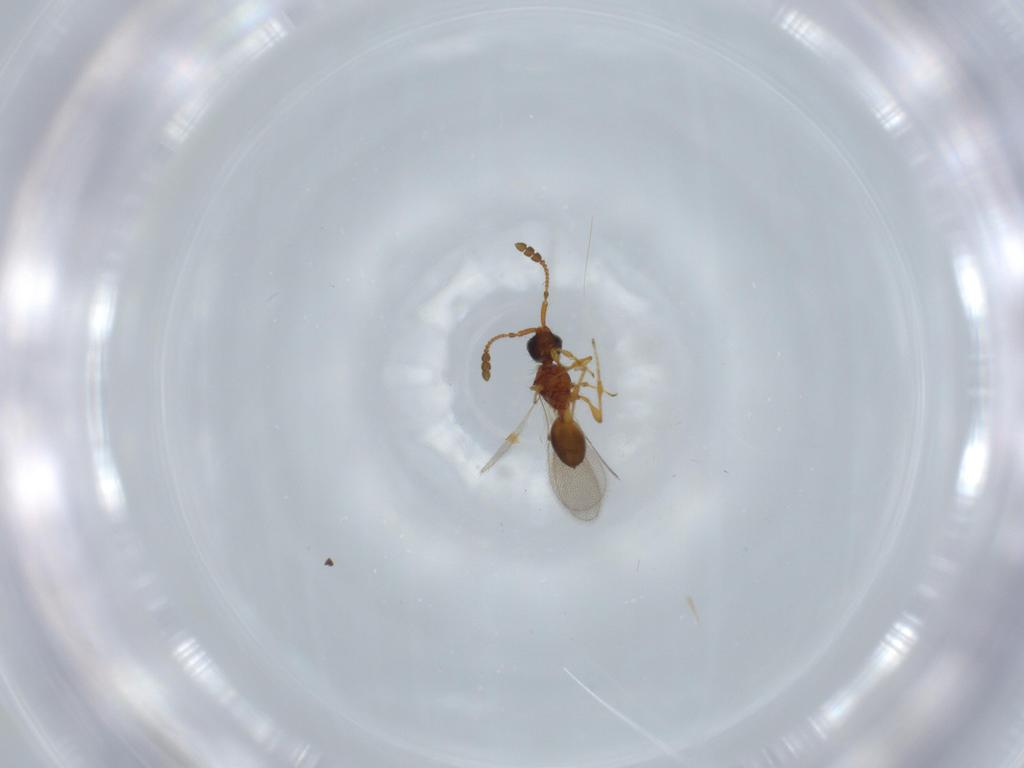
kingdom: Animalia
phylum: Arthropoda
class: Insecta
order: Hymenoptera
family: Diapriidae
